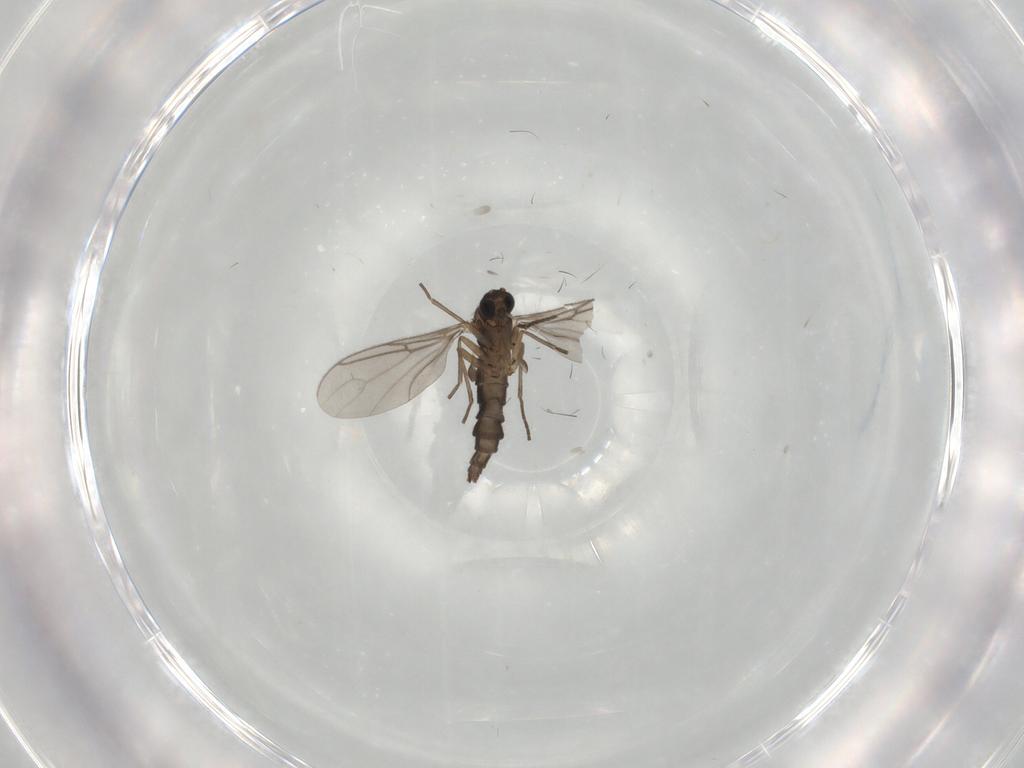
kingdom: Animalia
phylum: Arthropoda
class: Insecta
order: Diptera
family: Sciaridae
